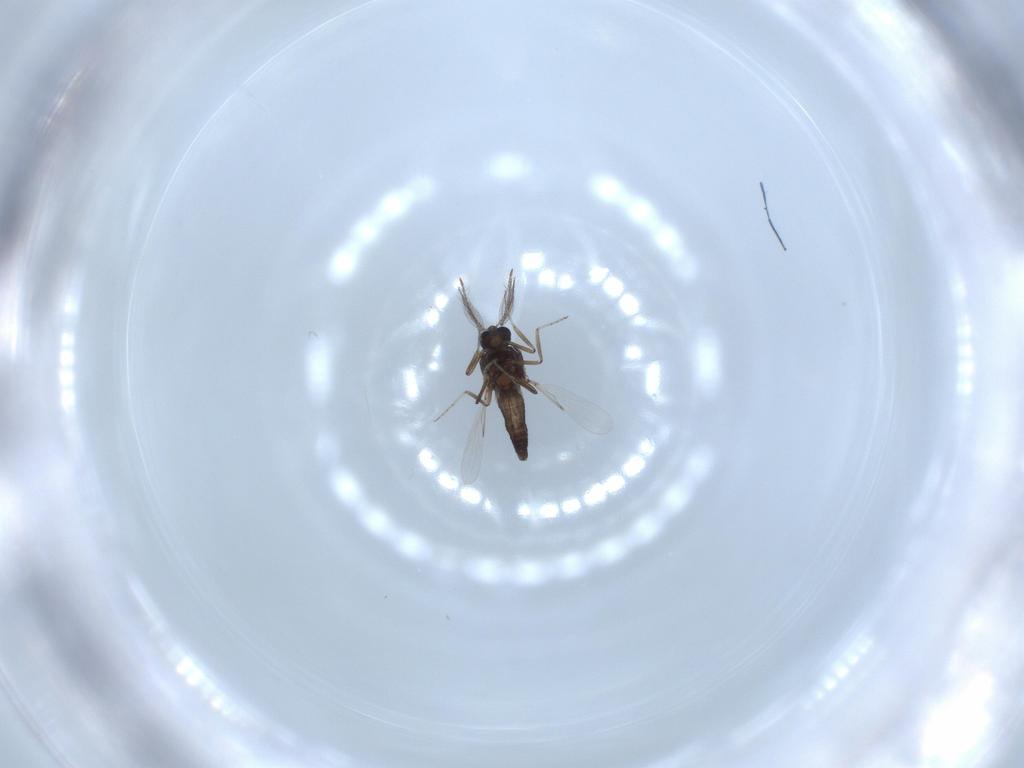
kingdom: Animalia
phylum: Arthropoda
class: Insecta
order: Diptera
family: Ceratopogonidae
